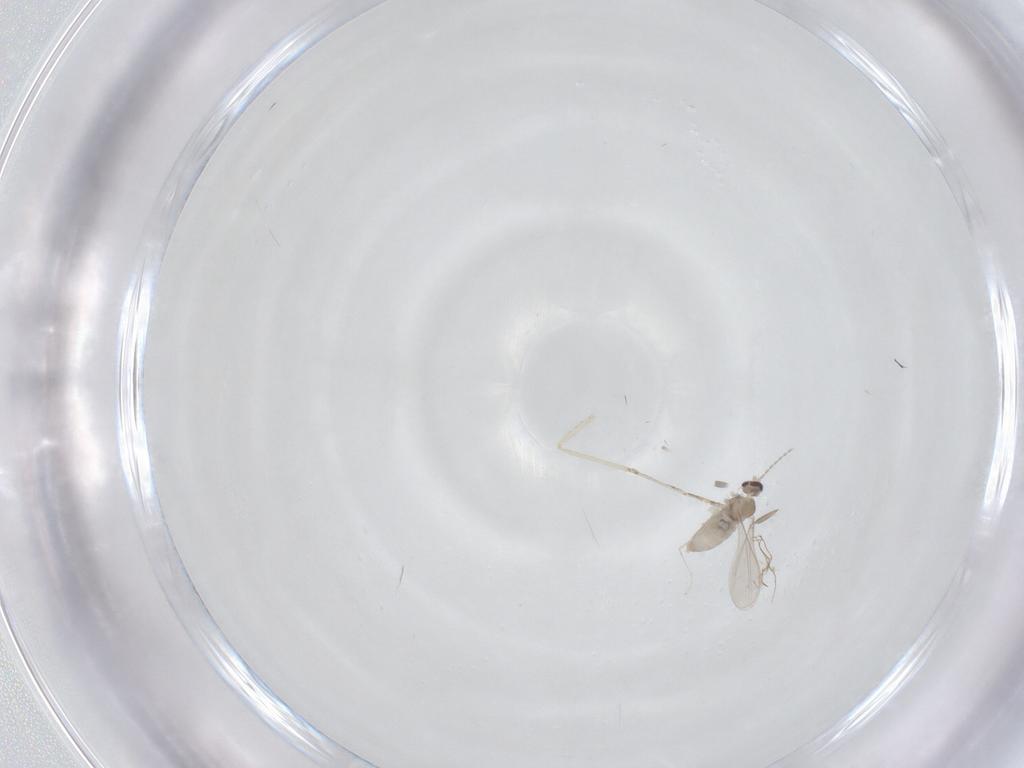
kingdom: Animalia
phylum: Arthropoda
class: Insecta
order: Diptera
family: Cecidomyiidae
